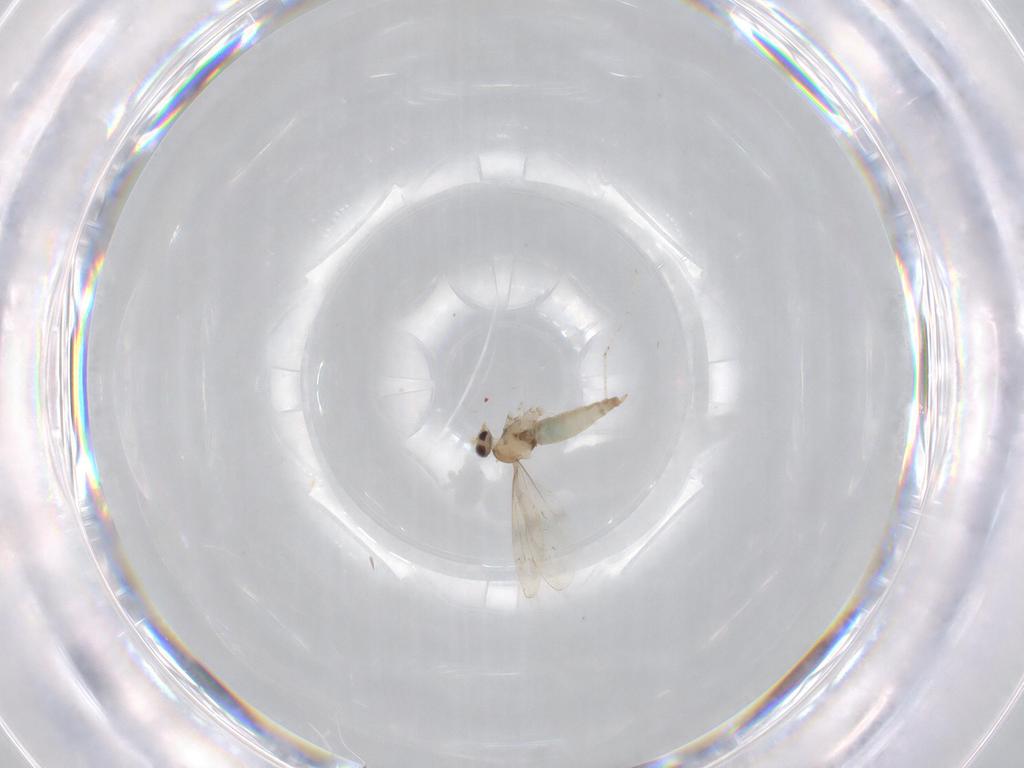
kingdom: Animalia
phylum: Arthropoda
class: Insecta
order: Diptera
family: Cecidomyiidae
